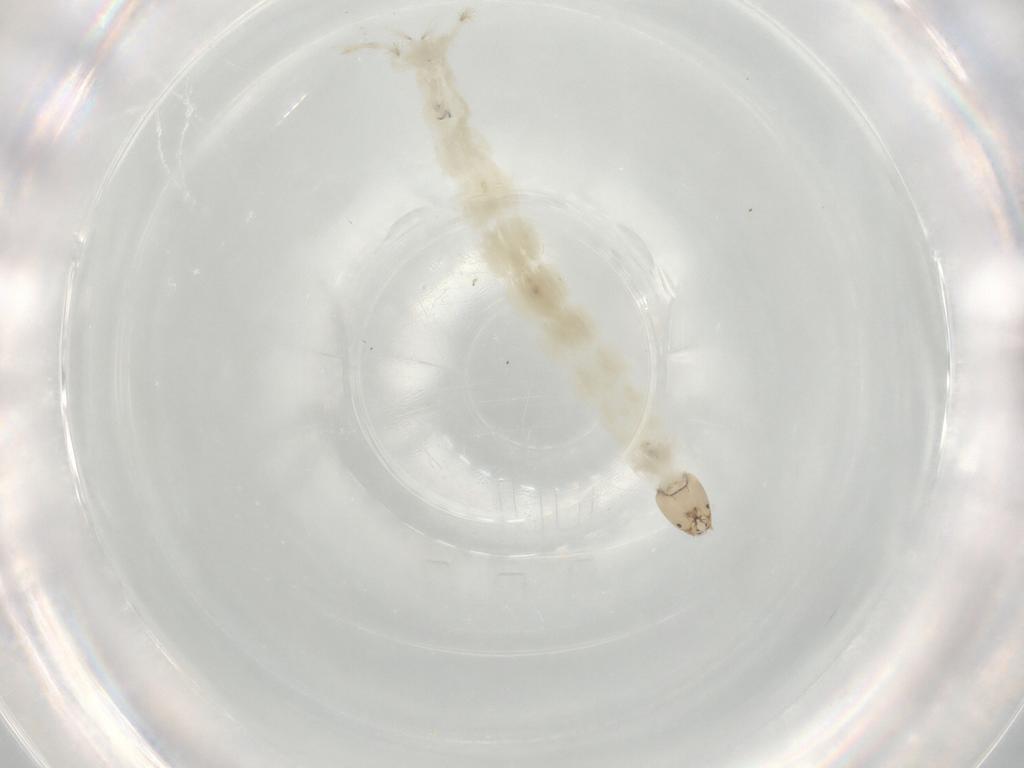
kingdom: Animalia
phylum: Arthropoda
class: Insecta
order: Diptera
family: Chironomidae
